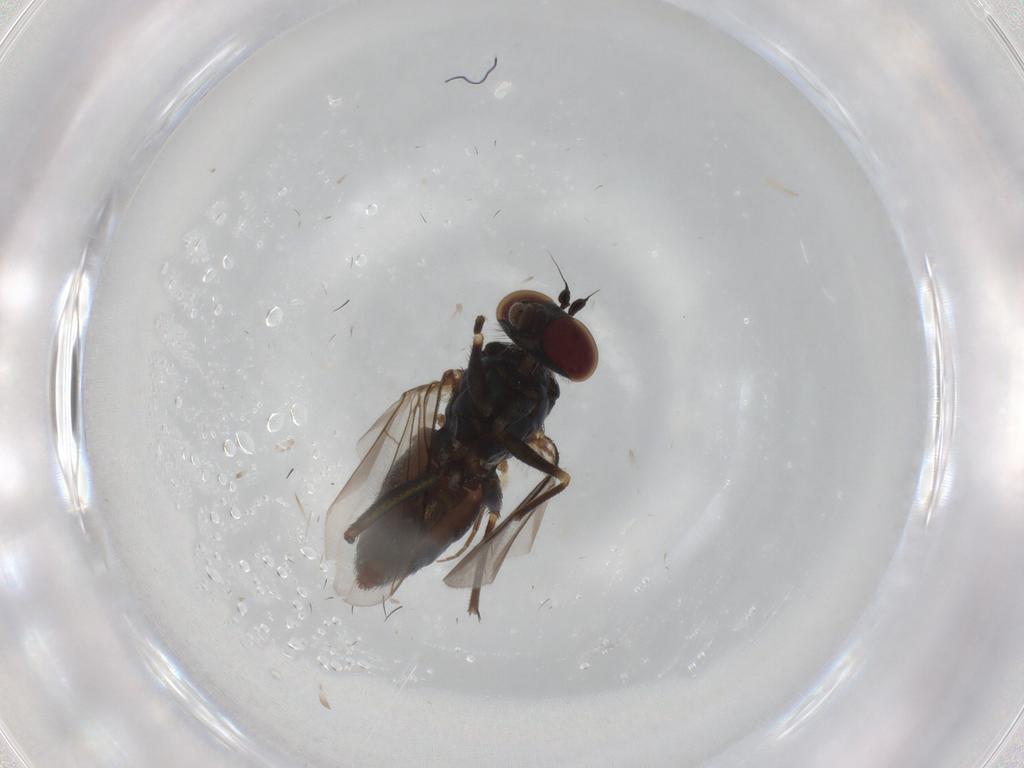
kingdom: Animalia
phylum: Arthropoda
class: Insecta
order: Diptera
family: Dolichopodidae
